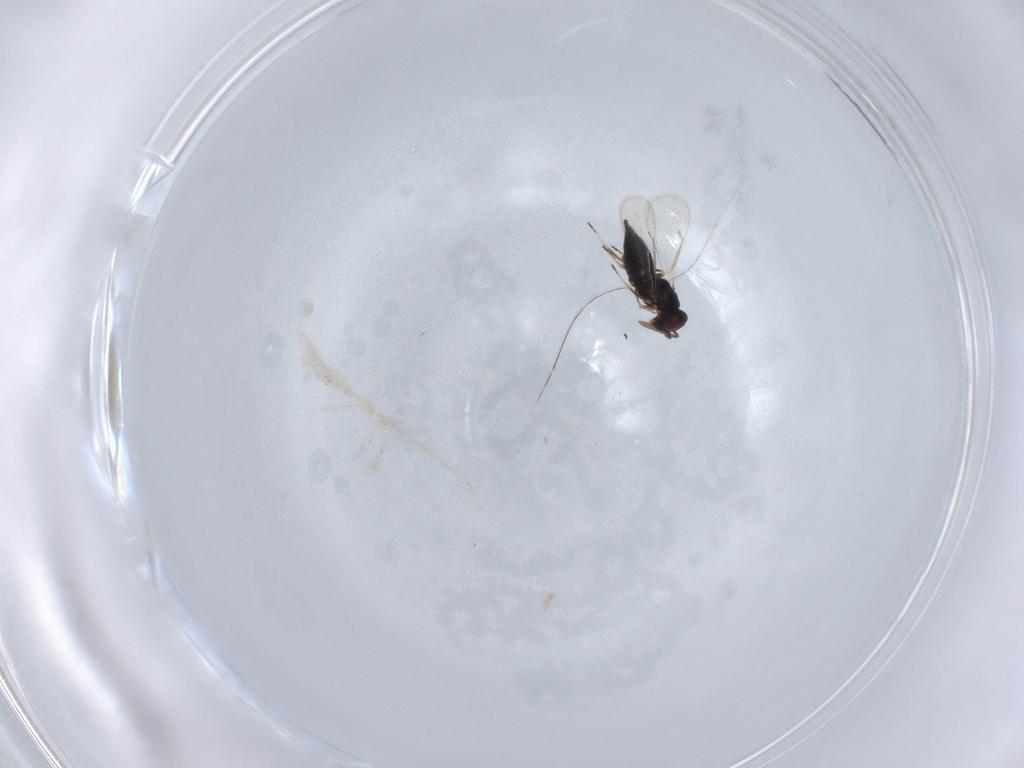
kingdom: Animalia
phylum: Arthropoda
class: Insecta
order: Hymenoptera
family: Eulophidae
